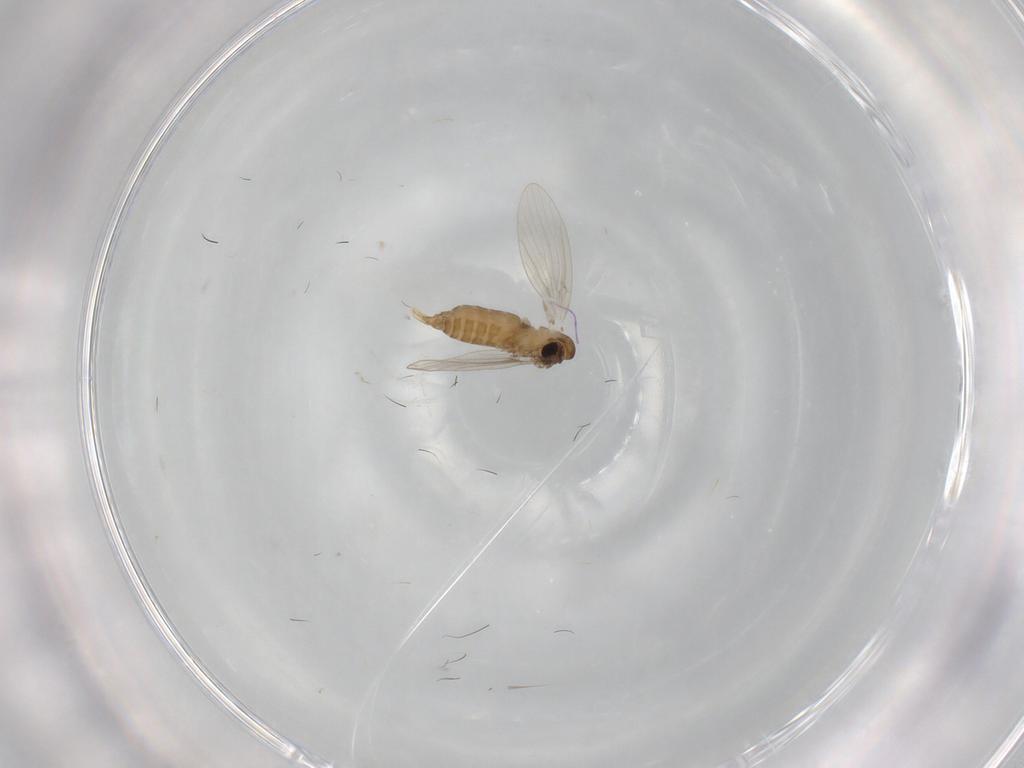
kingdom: Animalia
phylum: Arthropoda
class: Insecta
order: Diptera
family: Psychodidae
